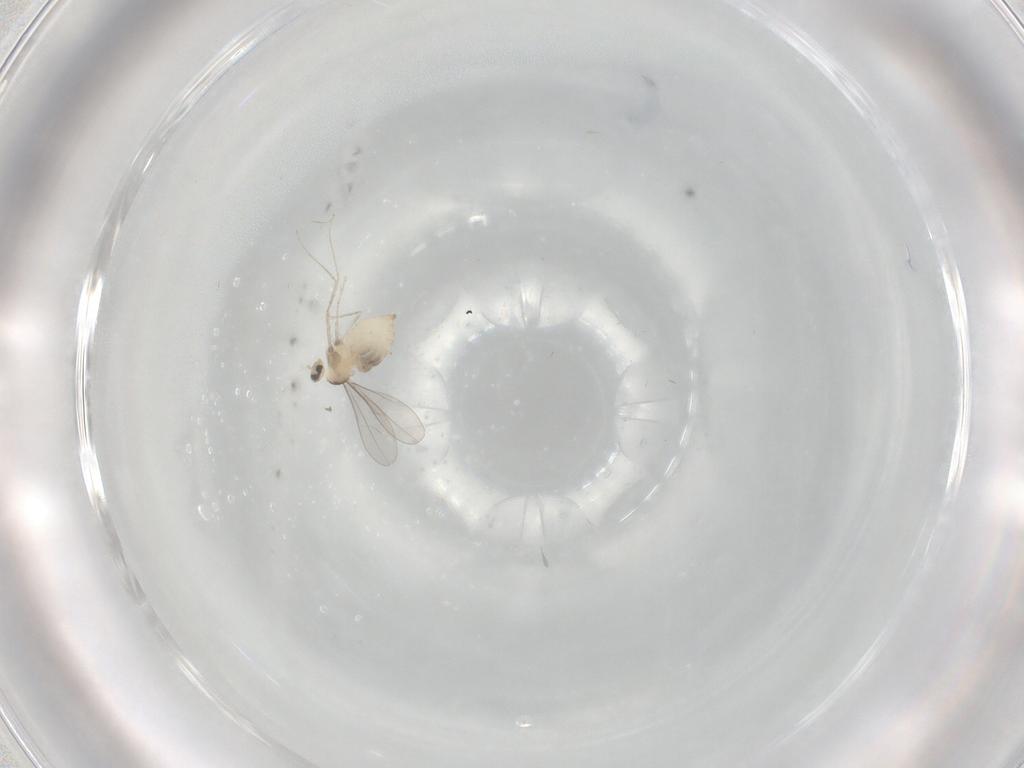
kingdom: Animalia
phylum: Arthropoda
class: Insecta
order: Diptera
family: Cecidomyiidae
